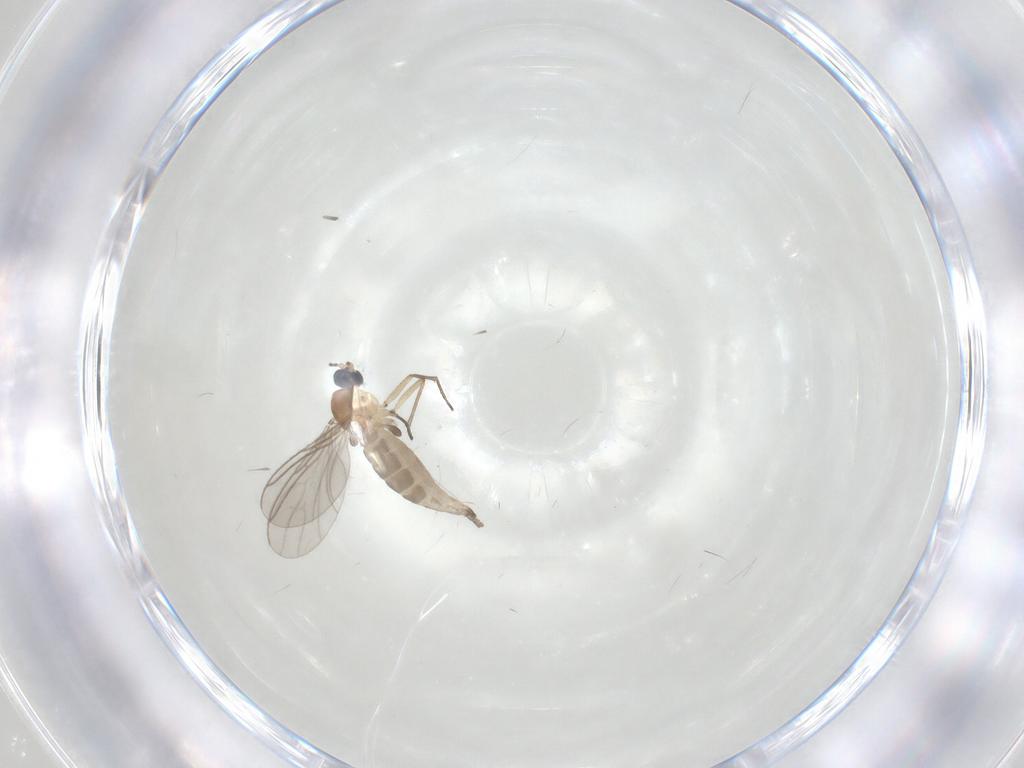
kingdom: Animalia
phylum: Arthropoda
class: Insecta
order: Diptera
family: Sciaridae
